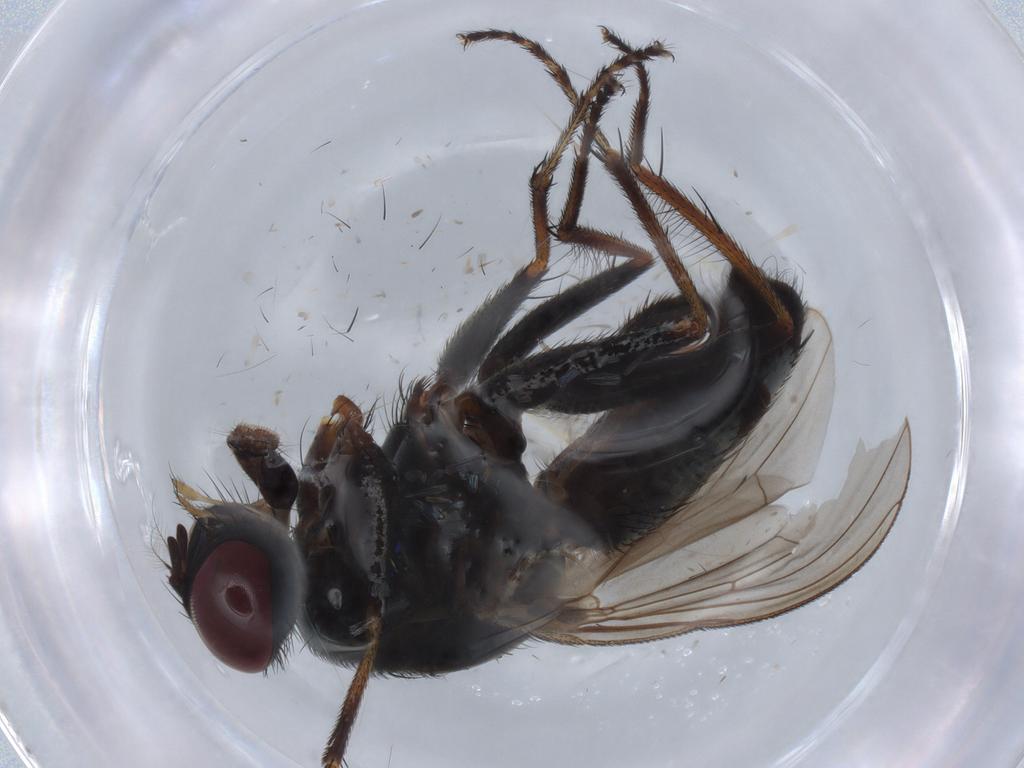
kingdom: Animalia
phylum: Arthropoda
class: Insecta
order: Diptera
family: Muscidae
